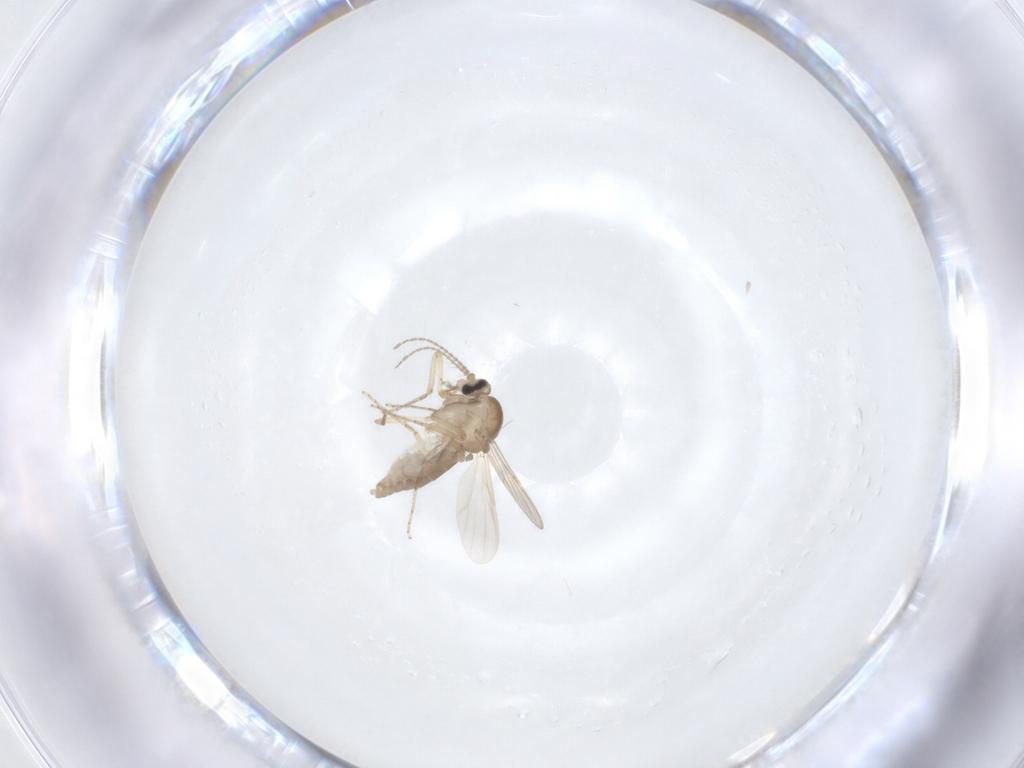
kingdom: Animalia
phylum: Arthropoda
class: Insecta
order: Diptera
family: Ceratopogonidae
